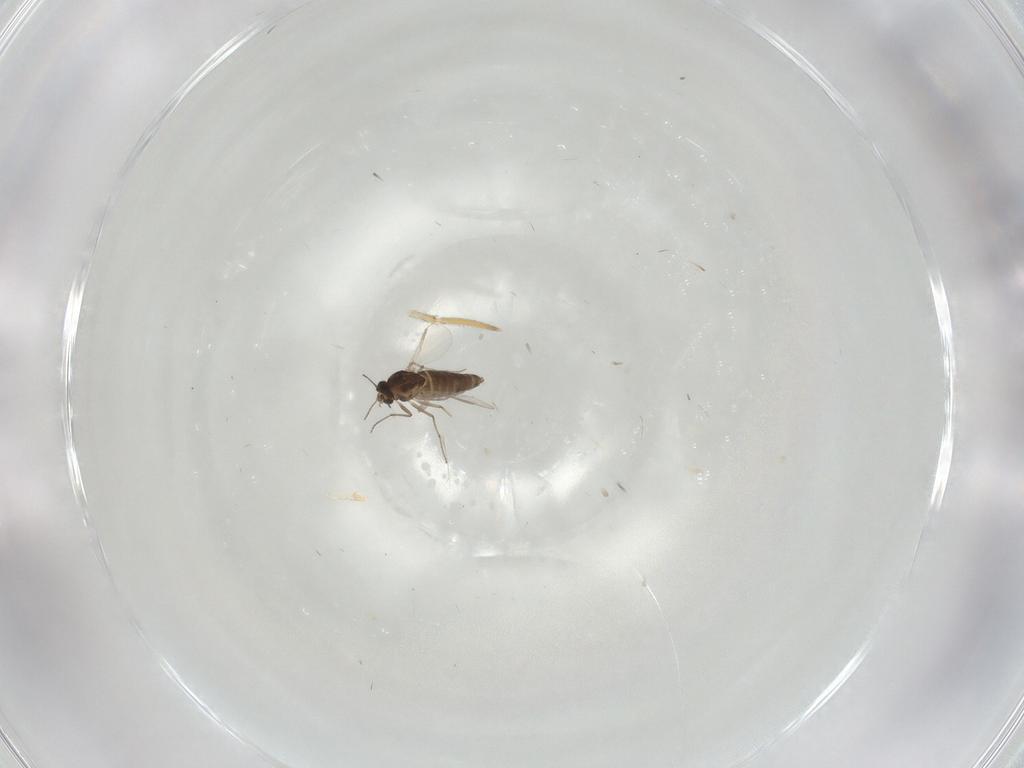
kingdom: Animalia
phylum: Arthropoda
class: Insecta
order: Diptera
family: Chironomidae
